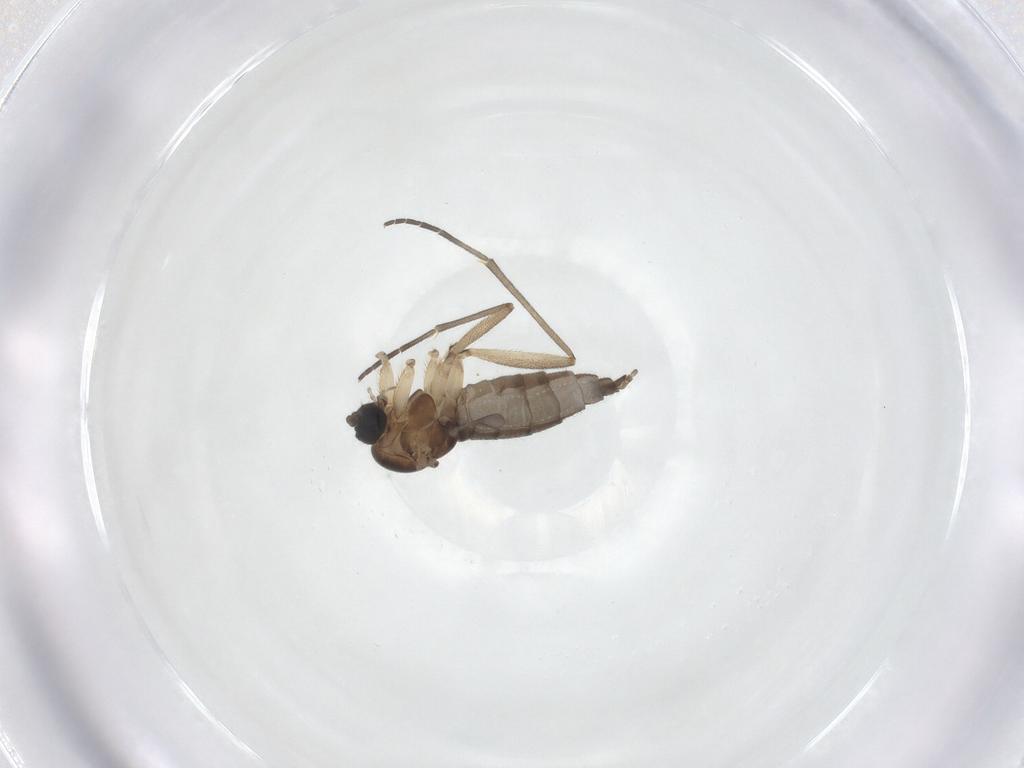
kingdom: Animalia
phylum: Arthropoda
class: Insecta
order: Diptera
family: Sciaridae
